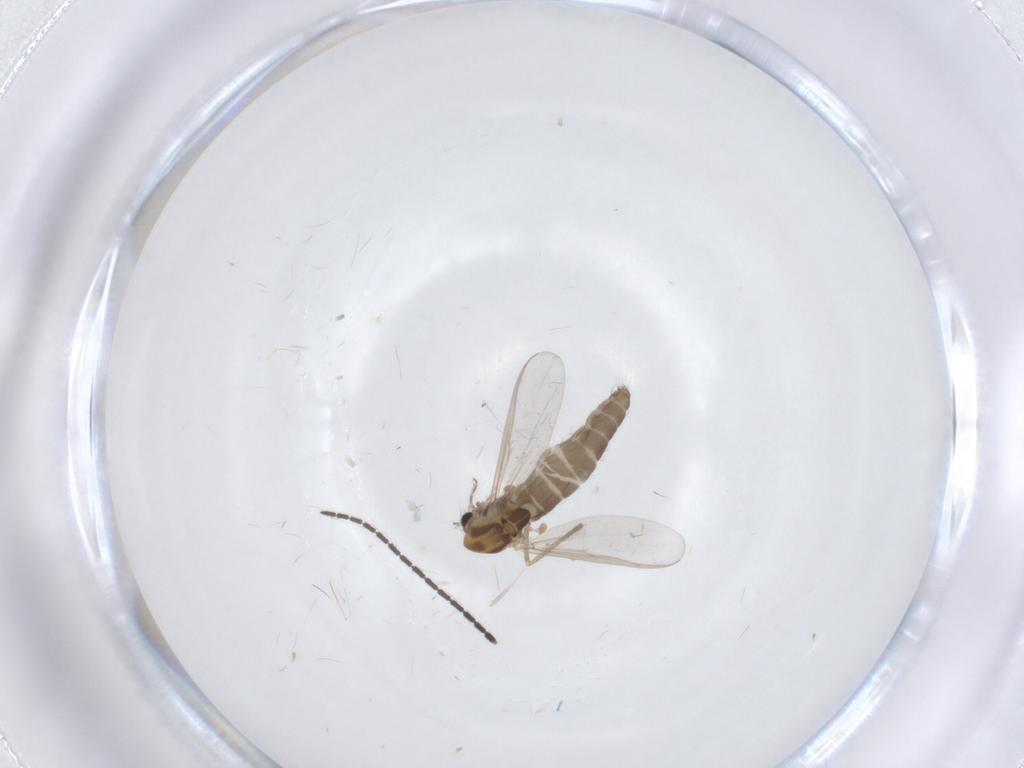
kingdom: Animalia
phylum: Arthropoda
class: Insecta
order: Diptera
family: Chironomidae
